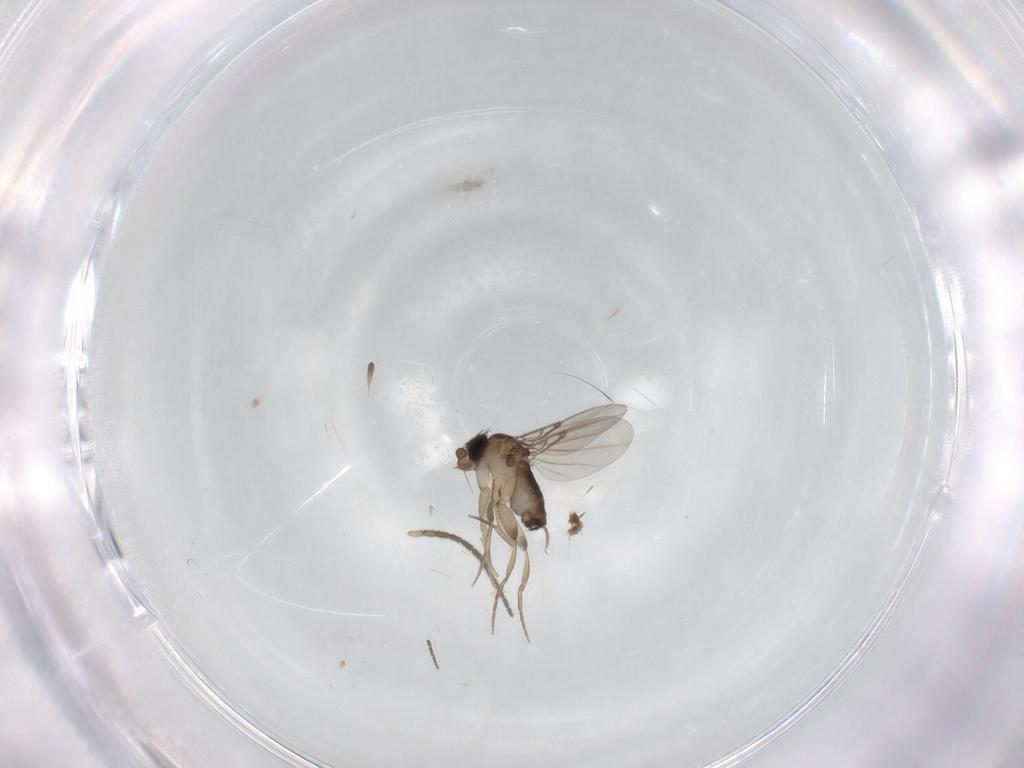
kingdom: Animalia
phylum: Arthropoda
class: Insecta
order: Diptera
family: Sciaridae
